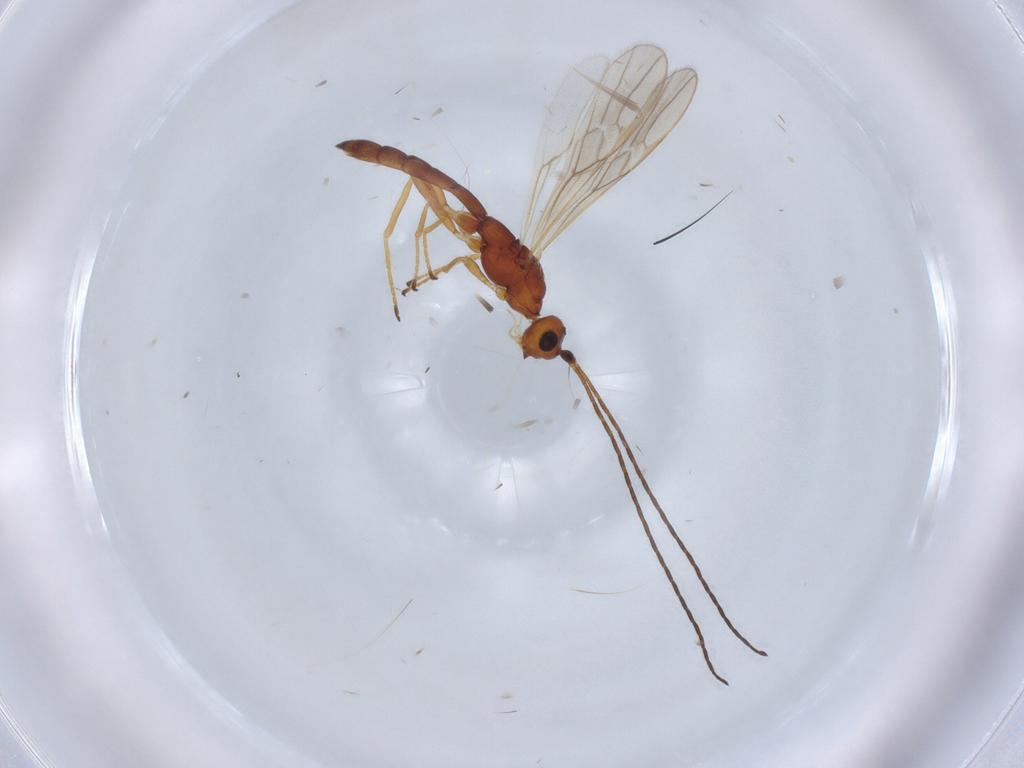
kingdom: Animalia
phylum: Arthropoda
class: Insecta
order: Hymenoptera
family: Braconidae
